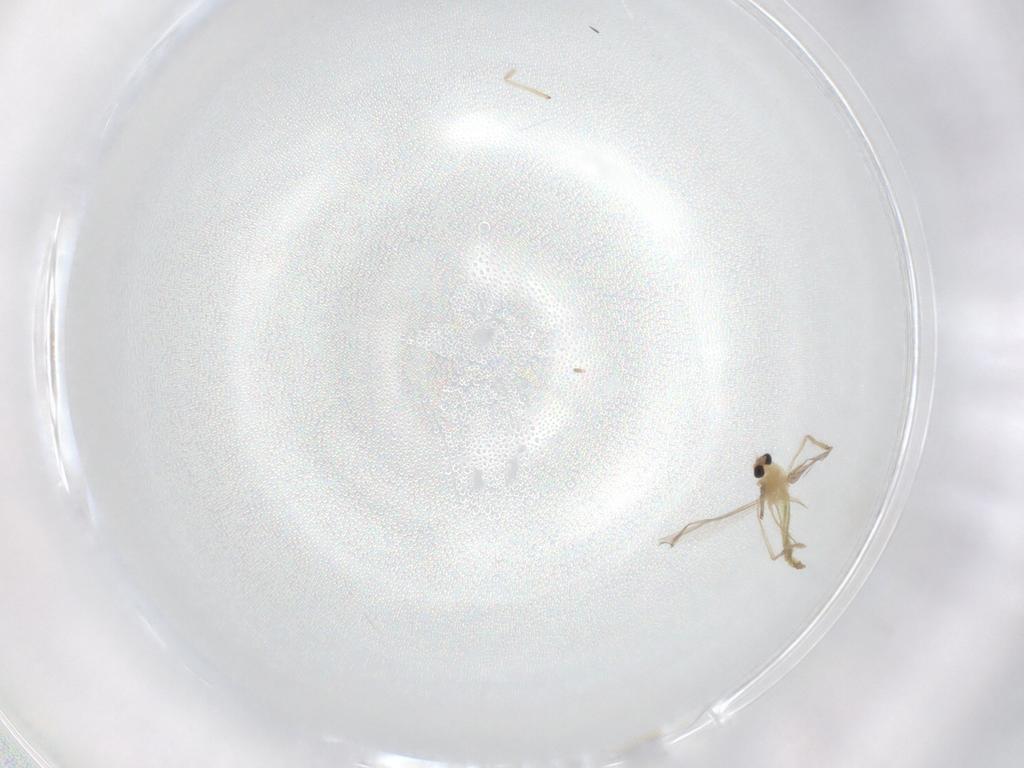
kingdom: Animalia
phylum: Arthropoda
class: Insecta
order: Diptera
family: Chironomidae
